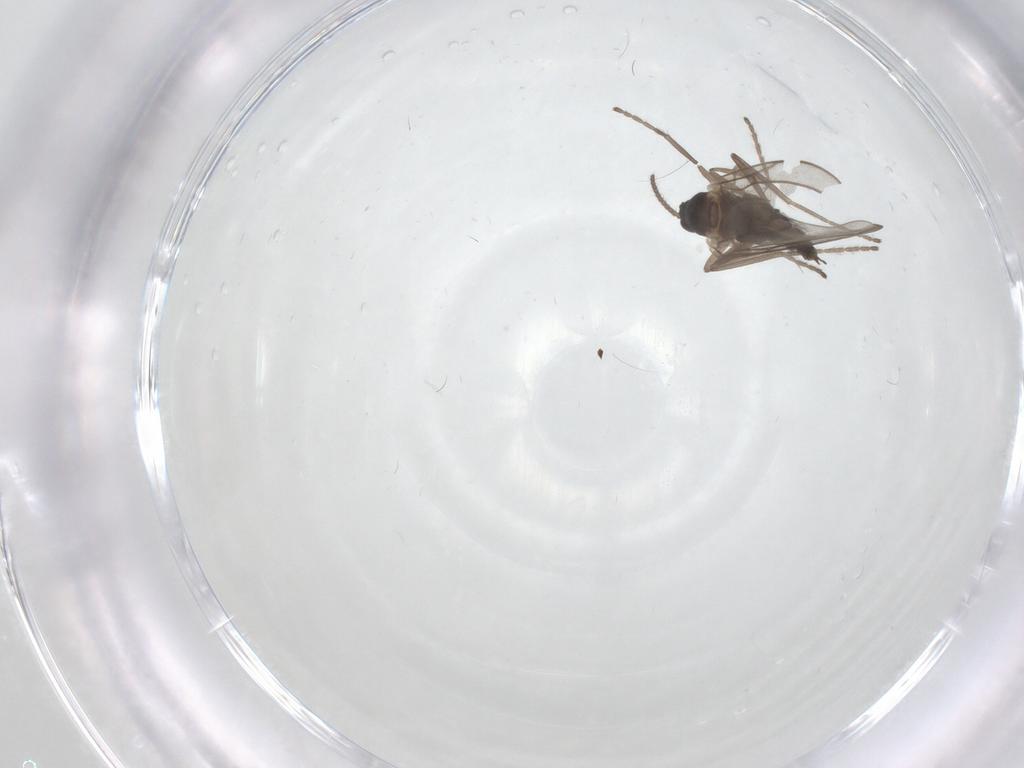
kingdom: Animalia
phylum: Arthropoda
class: Insecta
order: Diptera
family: Cecidomyiidae
